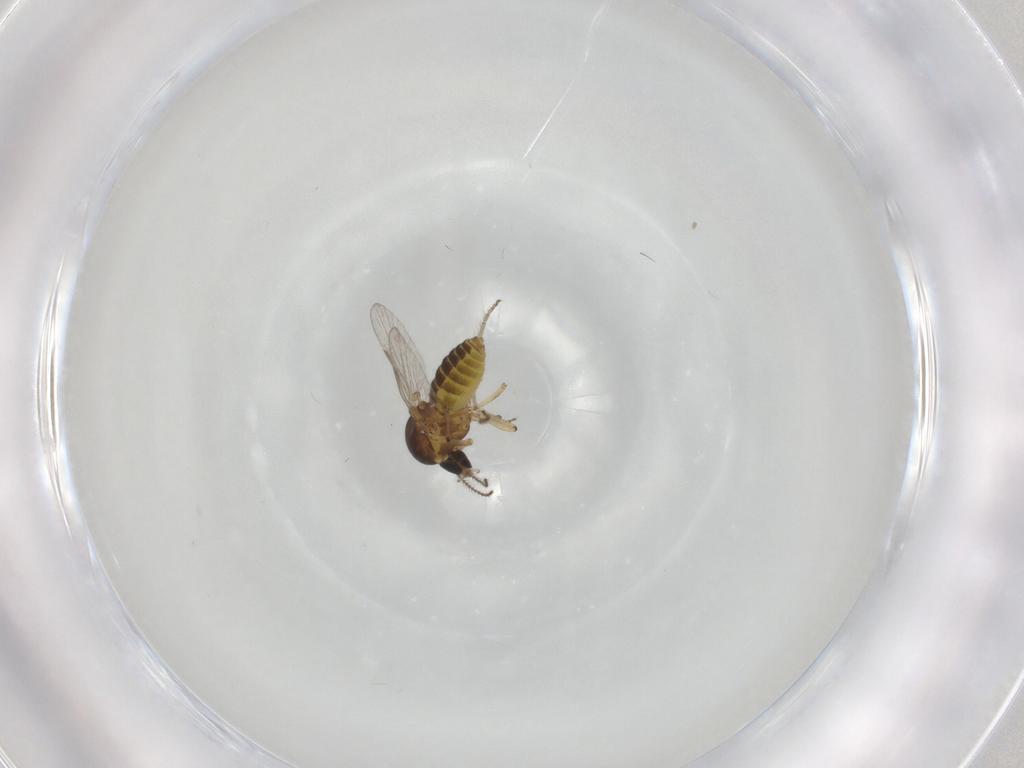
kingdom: Animalia
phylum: Arthropoda
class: Insecta
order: Diptera
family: Ceratopogonidae
